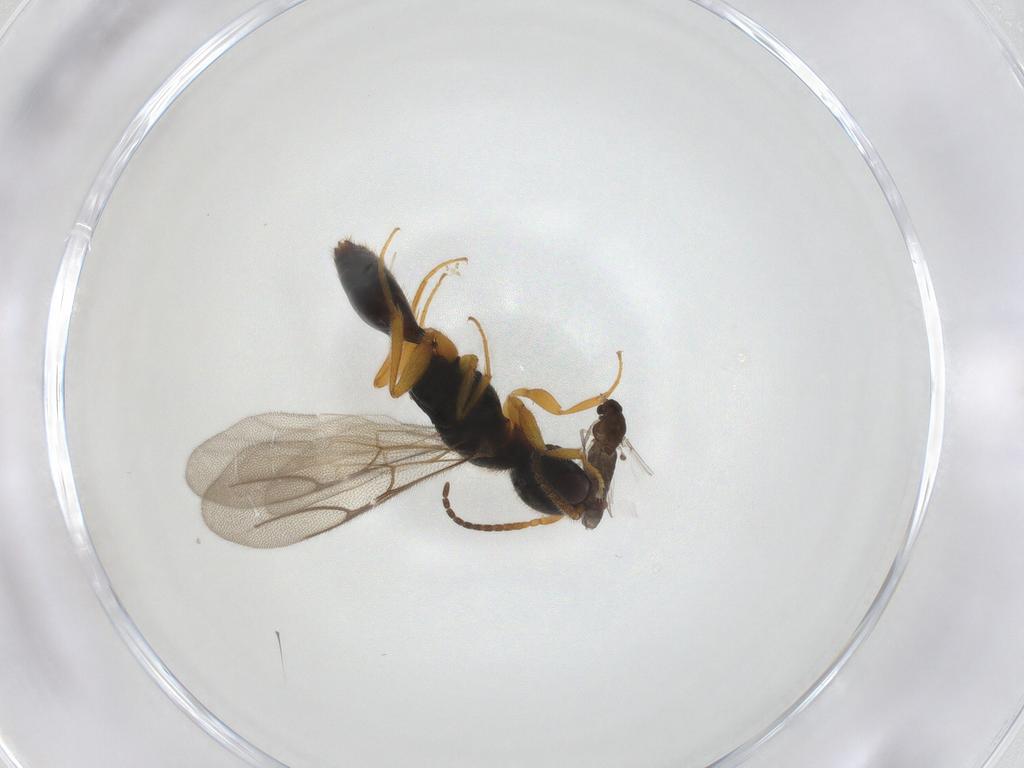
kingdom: Animalia
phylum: Arthropoda
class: Insecta
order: Hymenoptera
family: Bethylidae
